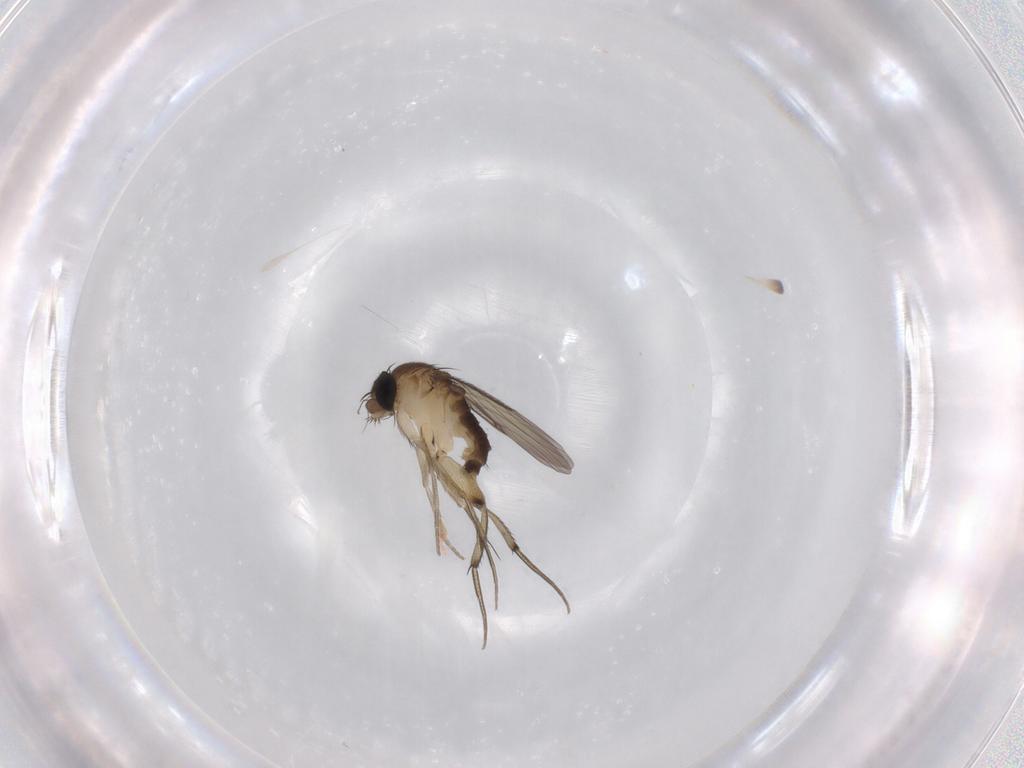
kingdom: Animalia
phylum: Arthropoda
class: Insecta
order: Diptera
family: Phoridae
